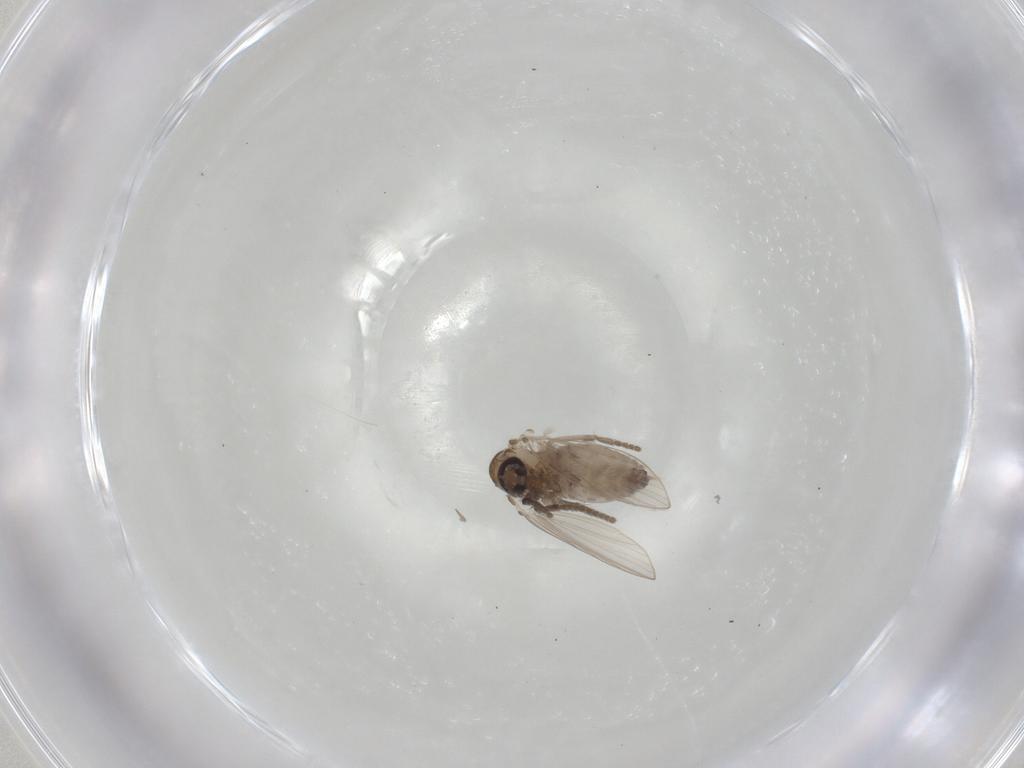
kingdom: Animalia
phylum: Arthropoda
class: Insecta
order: Diptera
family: Psychodidae
